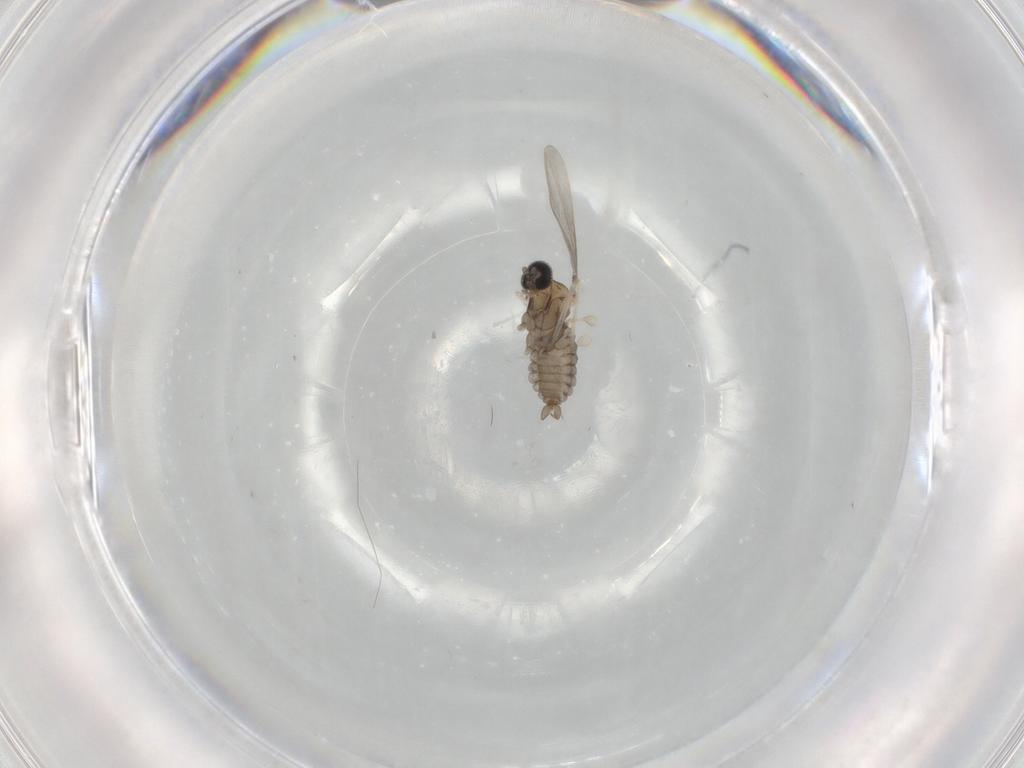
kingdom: Animalia
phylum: Arthropoda
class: Insecta
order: Diptera
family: Cecidomyiidae
